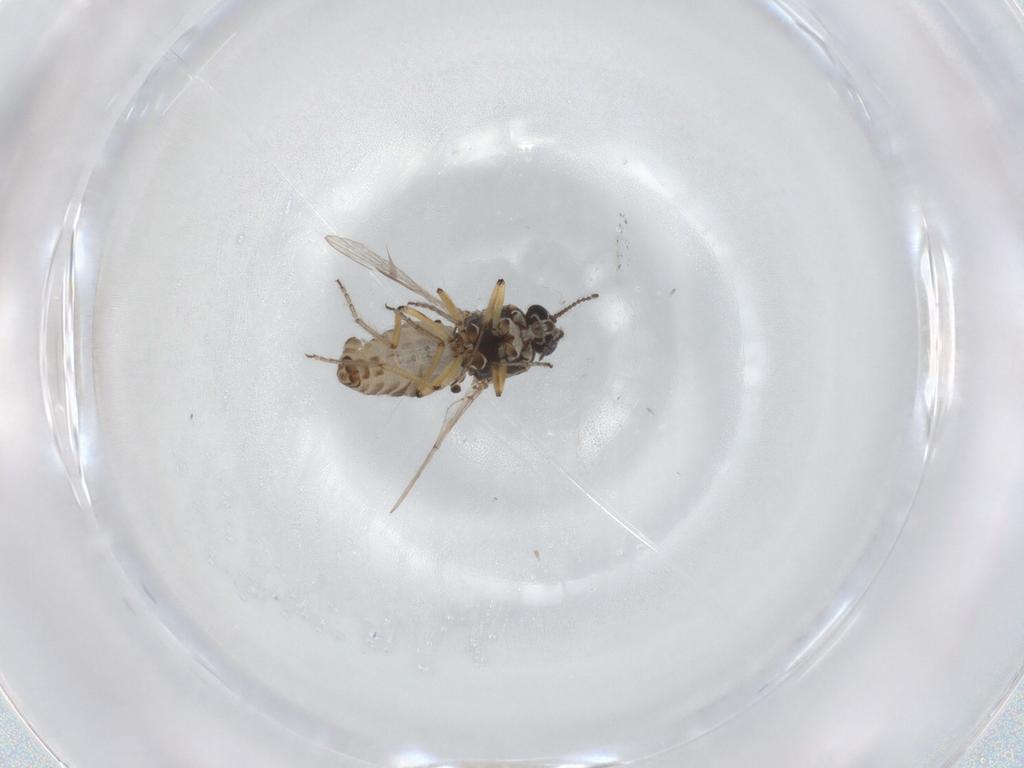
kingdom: Animalia
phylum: Arthropoda
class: Insecta
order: Diptera
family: Ceratopogonidae
